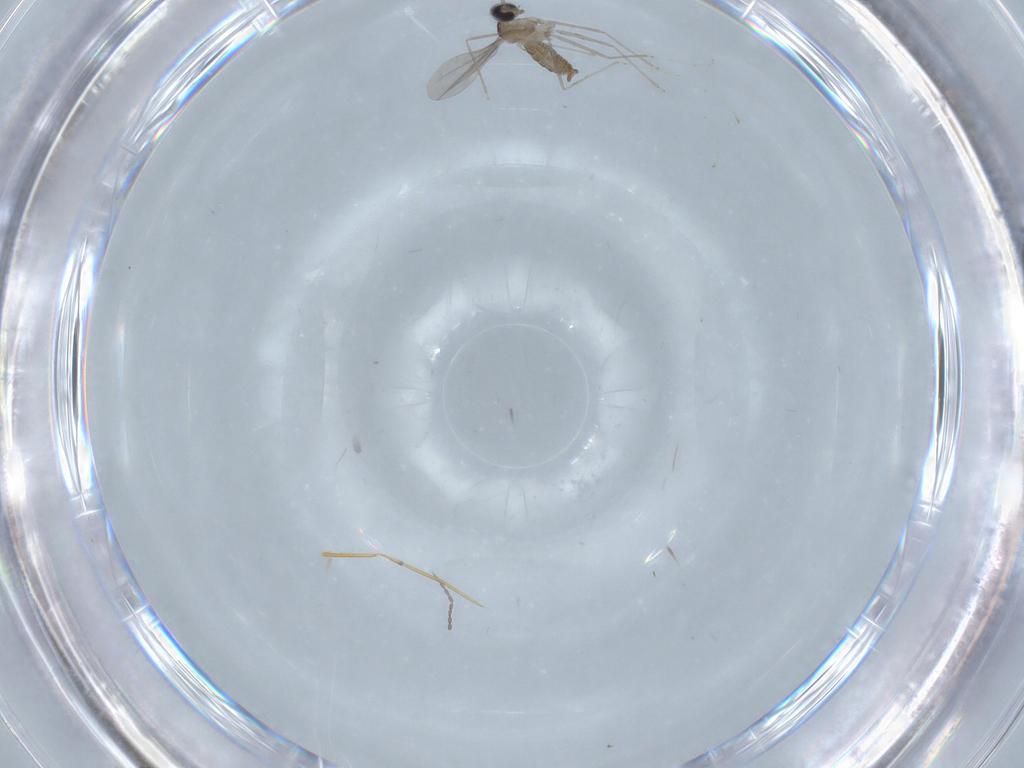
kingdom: Animalia
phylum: Arthropoda
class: Insecta
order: Diptera
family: Cecidomyiidae
